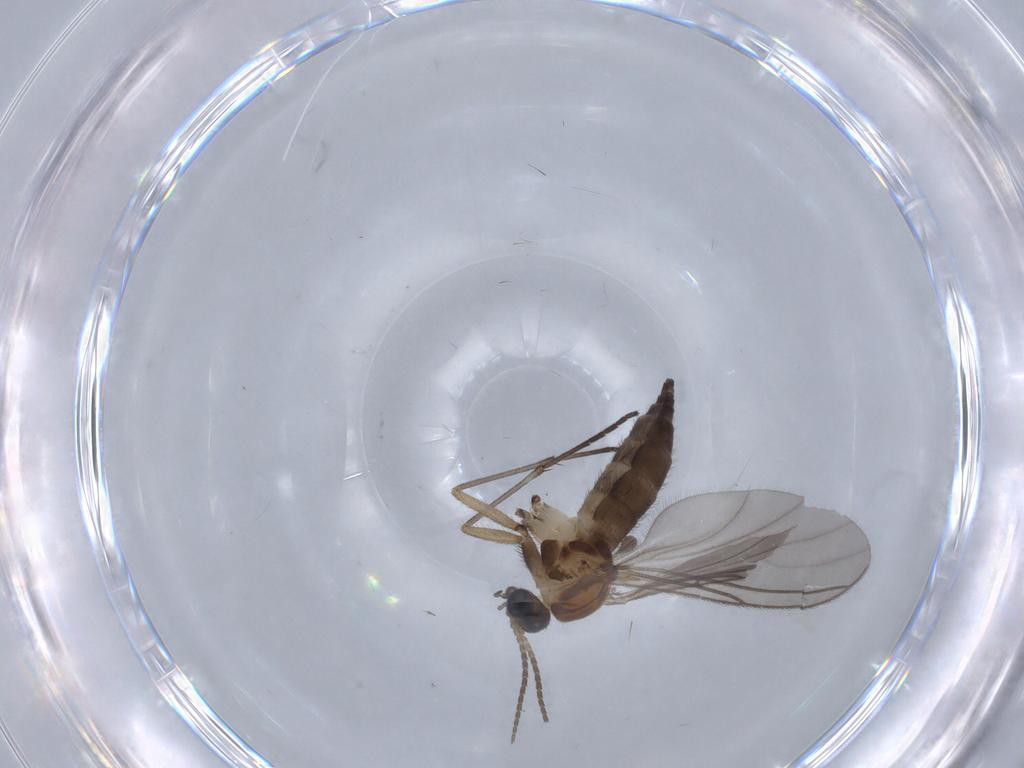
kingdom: Animalia
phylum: Arthropoda
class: Insecta
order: Diptera
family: Sciaridae
